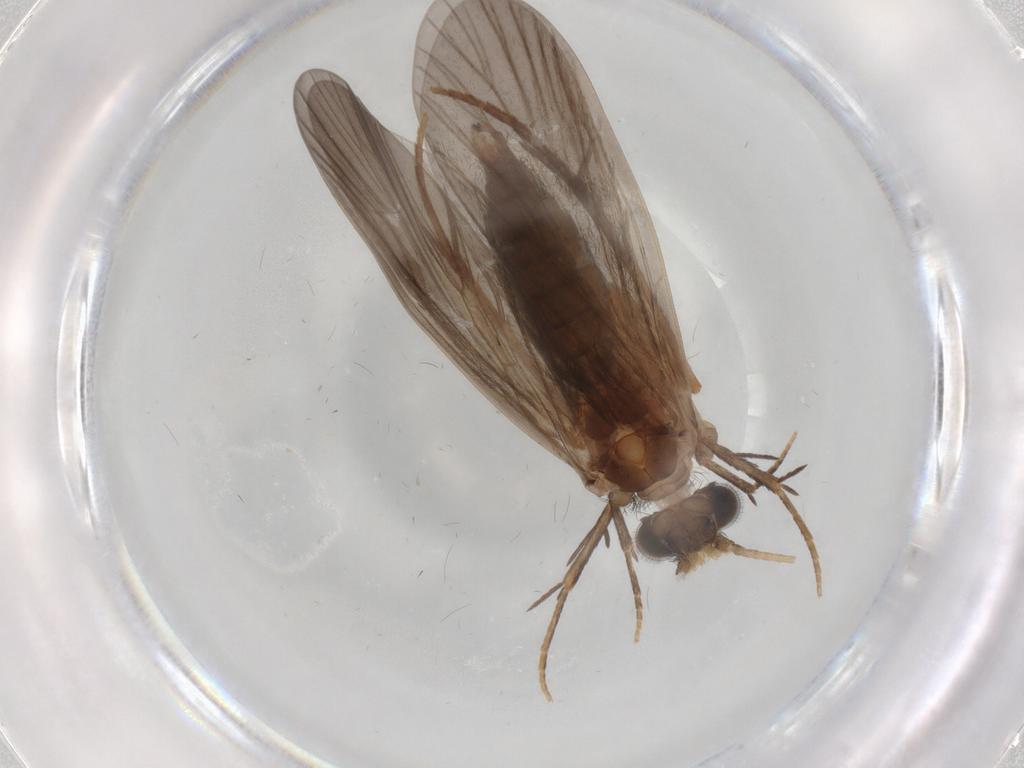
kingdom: Animalia
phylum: Arthropoda
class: Insecta
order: Trichoptera
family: Philopotamidae
